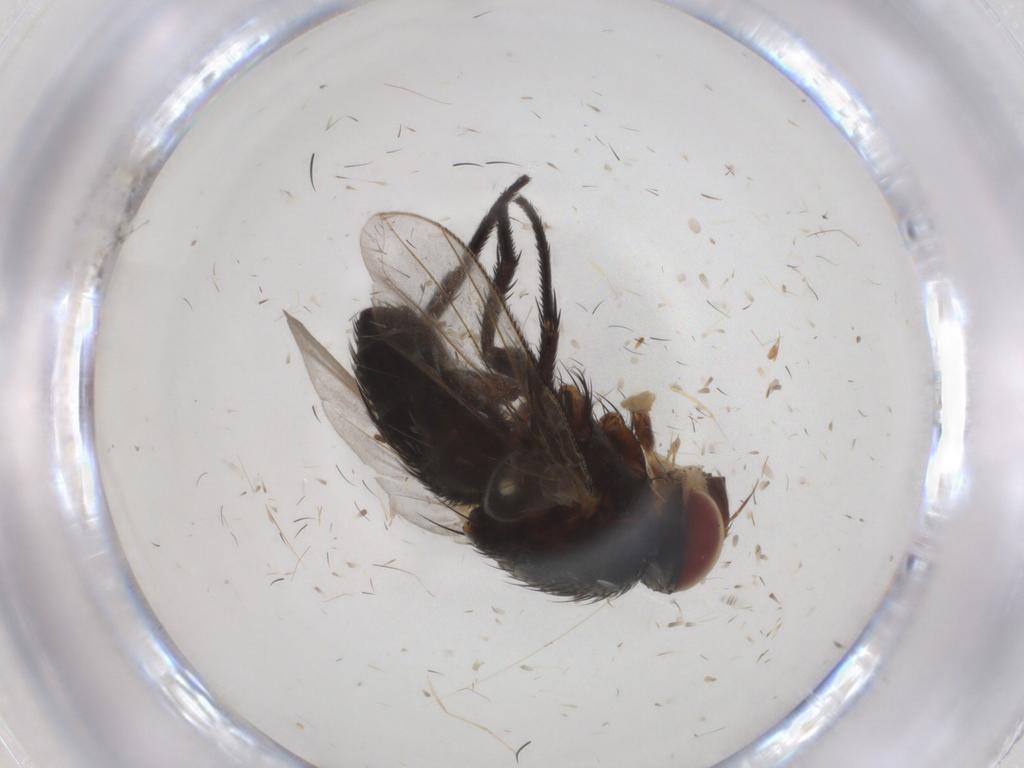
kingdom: Animalia
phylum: Arthropoda
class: Insecta
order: Diptera
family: Tachinidae
